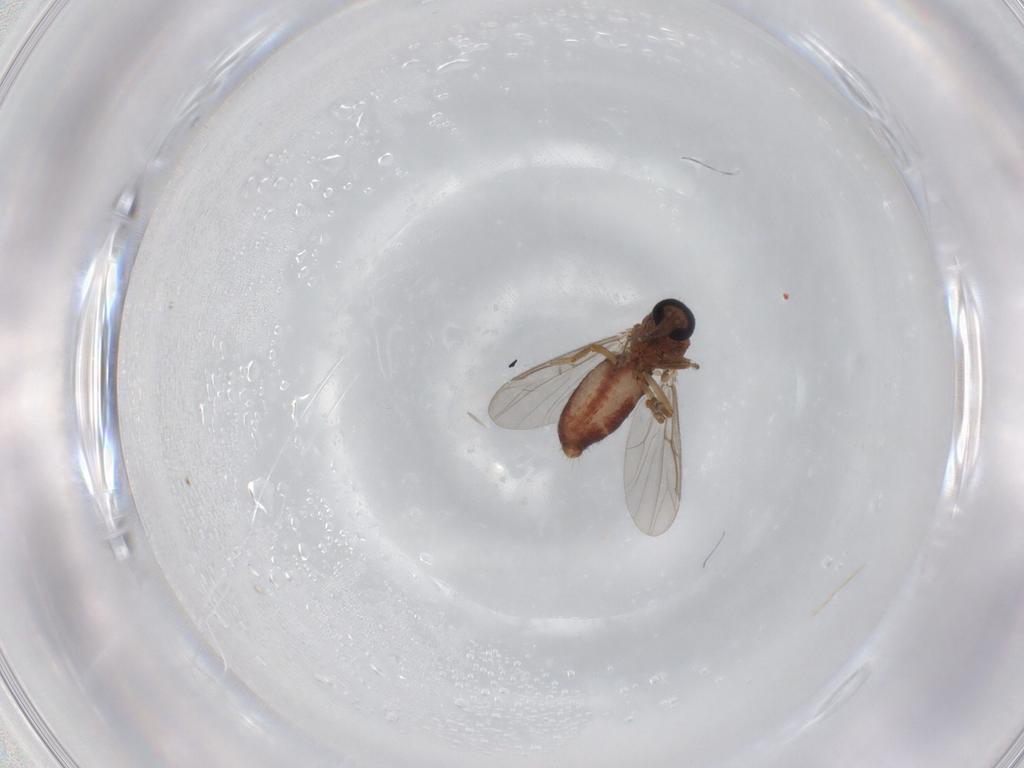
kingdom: Animalia
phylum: Arthropoda
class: Insecta
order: Diptera
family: Ceratopogonidae
